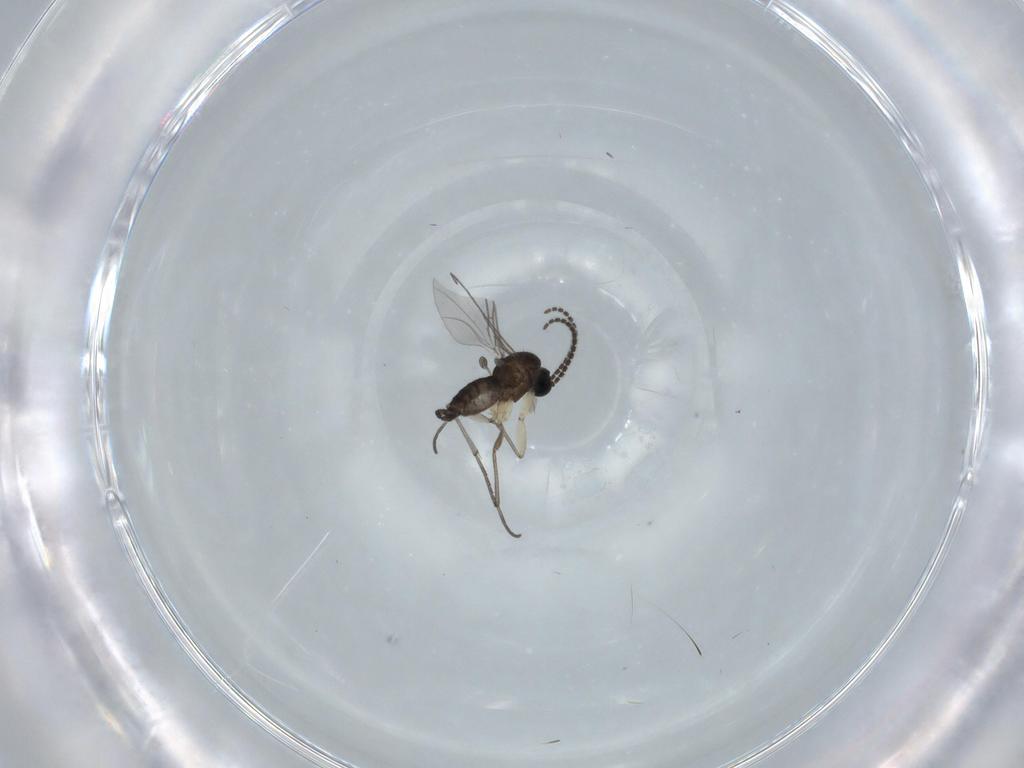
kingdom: Animalia
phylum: Arthropoda
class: Insecta
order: Diptera
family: Sciaridae
